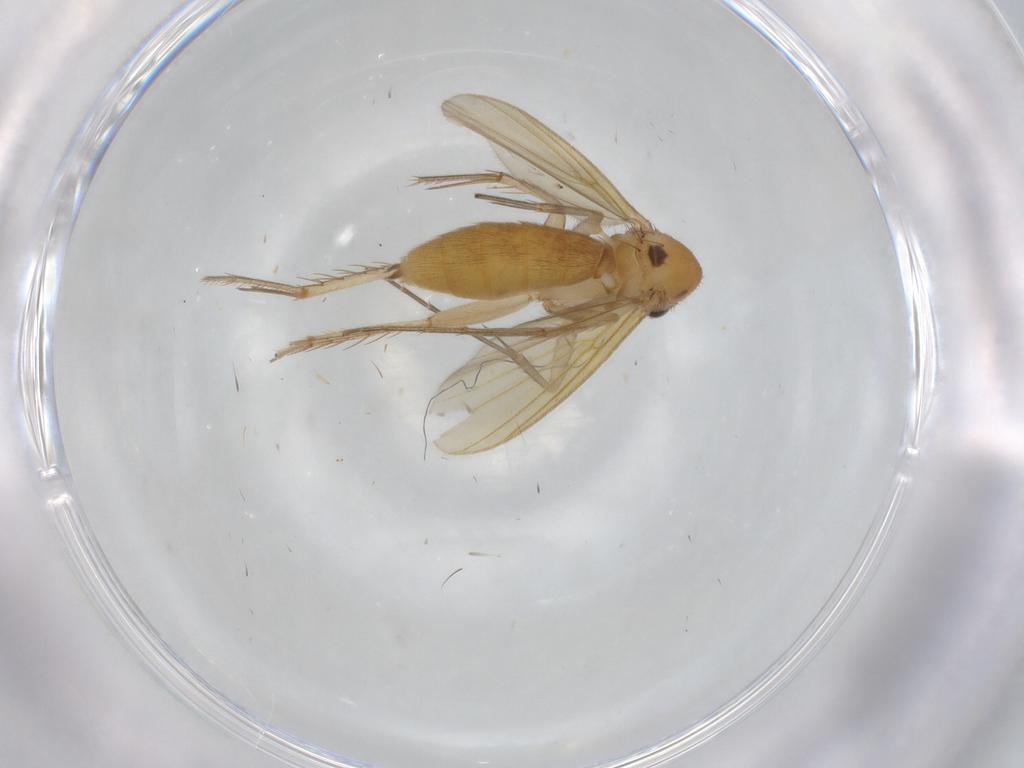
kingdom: Animalia
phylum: Arthropoda
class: Insecta
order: Diptera
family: Mycetophilidae
